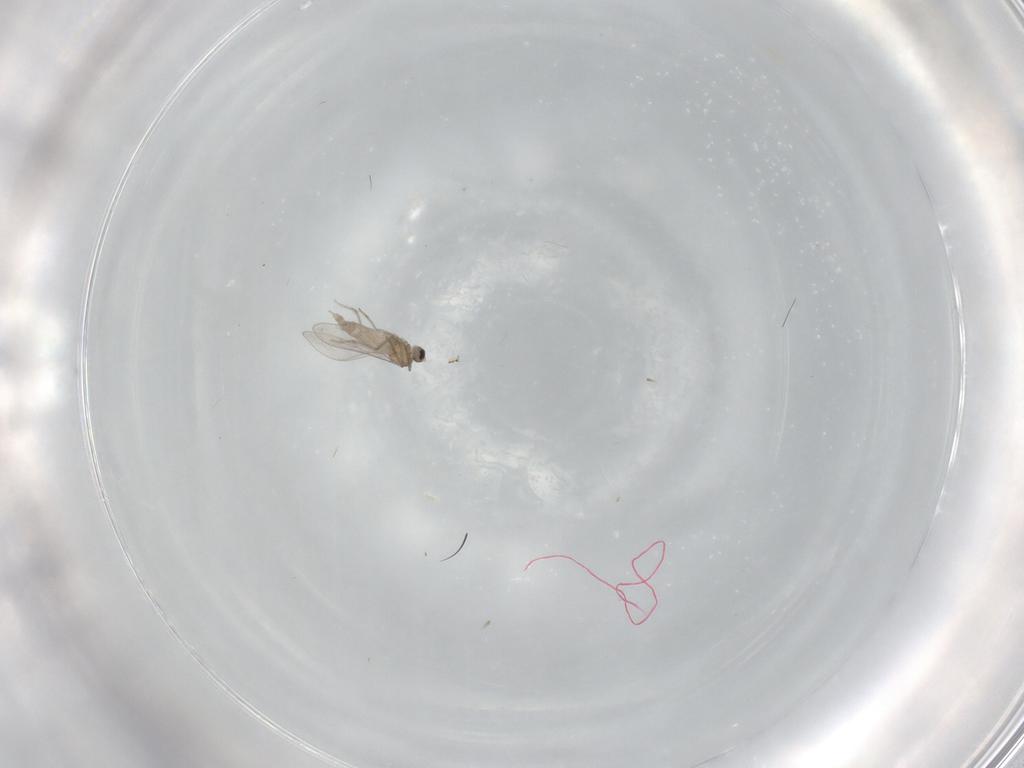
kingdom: Animalia
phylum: Arthropoda
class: Insecta
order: Diptera
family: Cecidomyiidae
